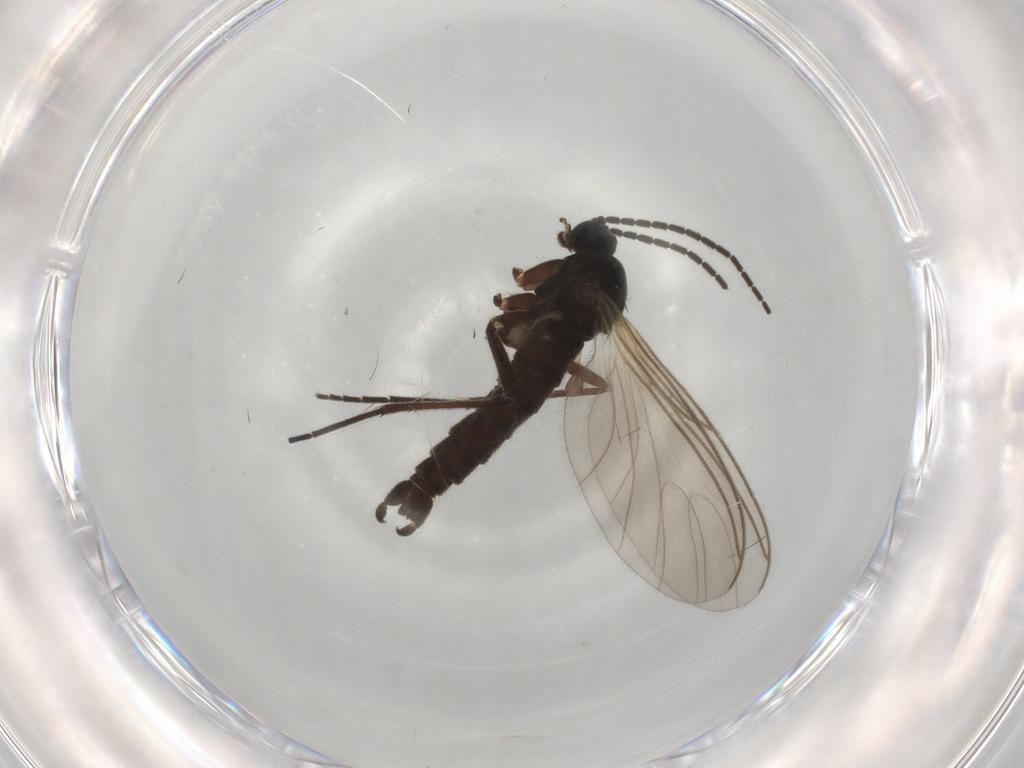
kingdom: Animalia
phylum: Arthropoda
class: Insecta
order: Diptera
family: Sciaridae
